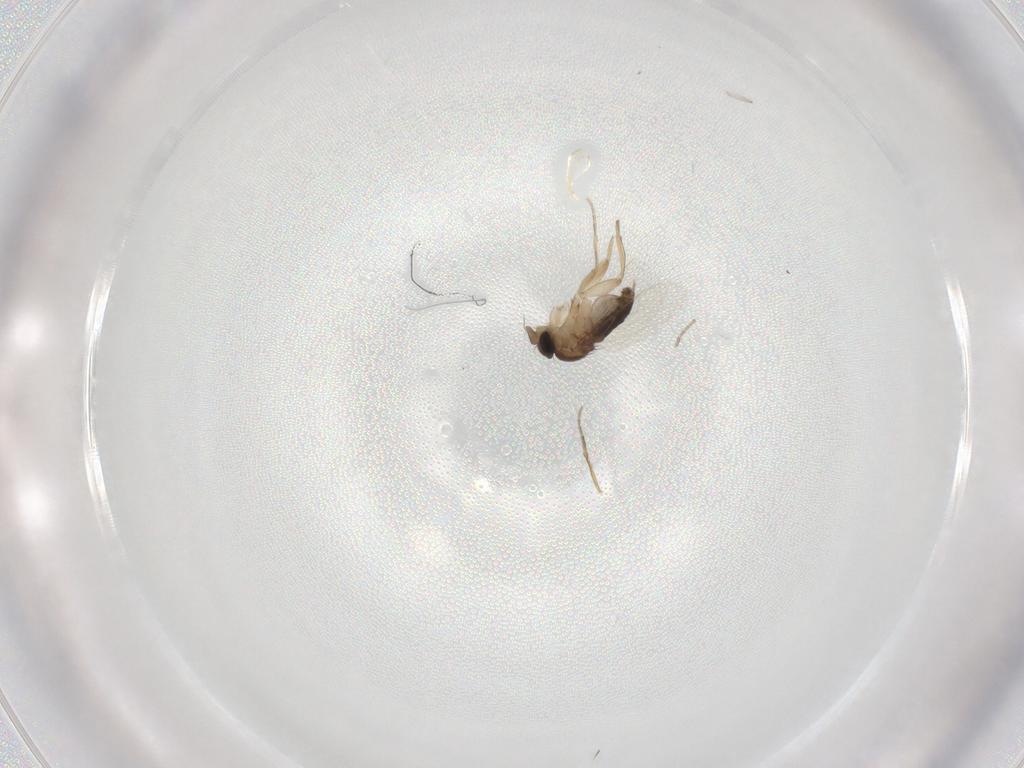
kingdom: Animalia
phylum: Arthropoda
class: Insecta
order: Diptera
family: Phoridae
